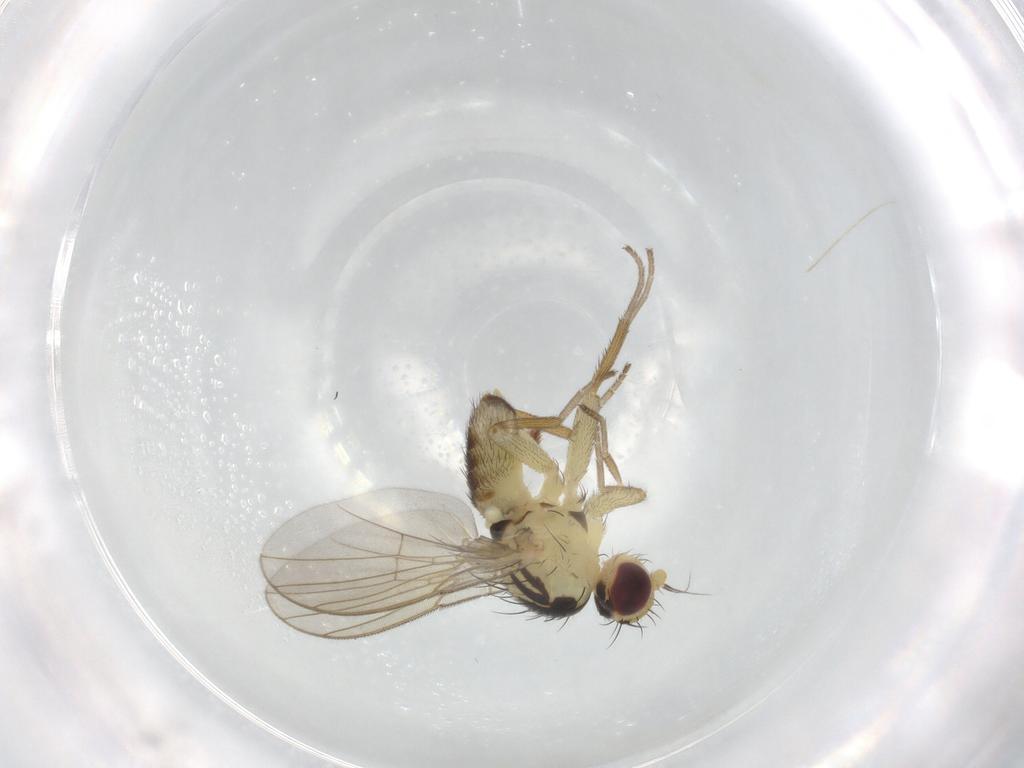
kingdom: Animalia
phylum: Arthropoda
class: Insecta
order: Diptera
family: Agromyzidae
